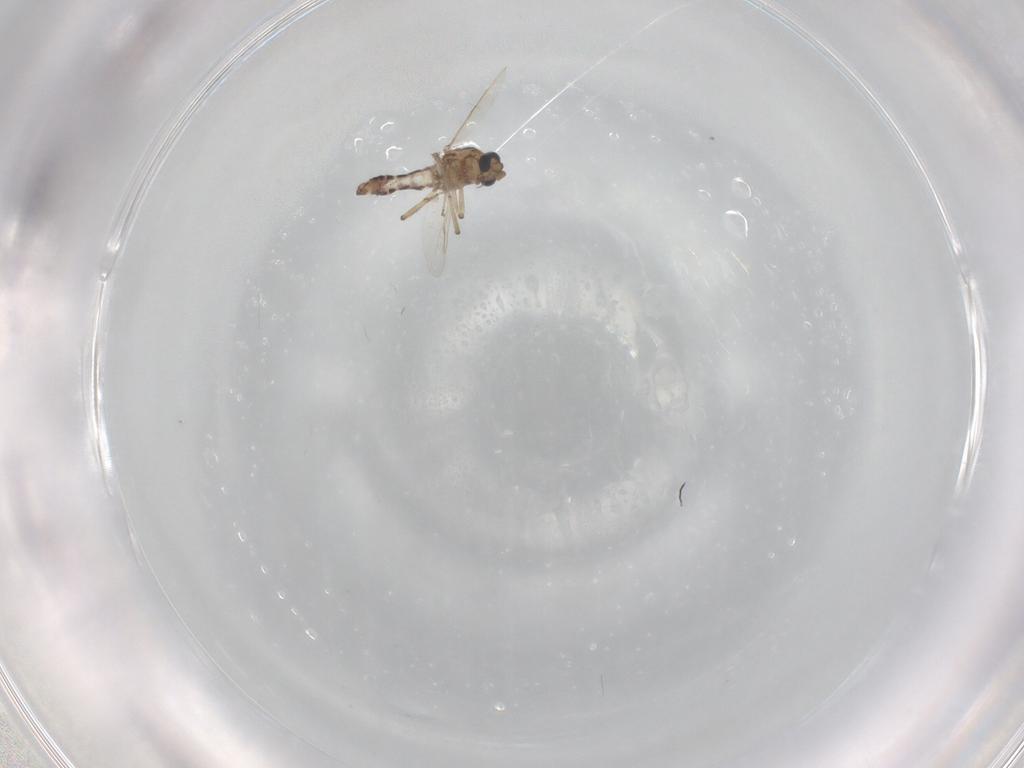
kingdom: Animalia
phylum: Arthropoda
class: Insecta
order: Diptera
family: Ceratopogonidae
